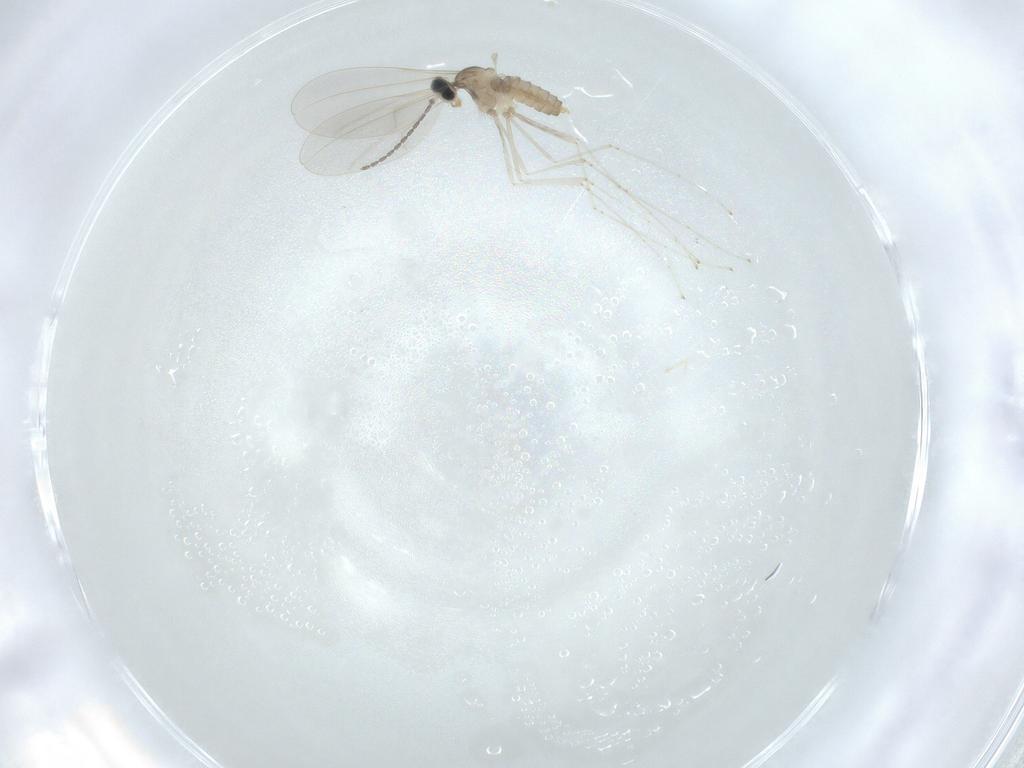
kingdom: Animalia
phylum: Arthropoda
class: Insecta
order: Diptera
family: Cecidomyiidae
